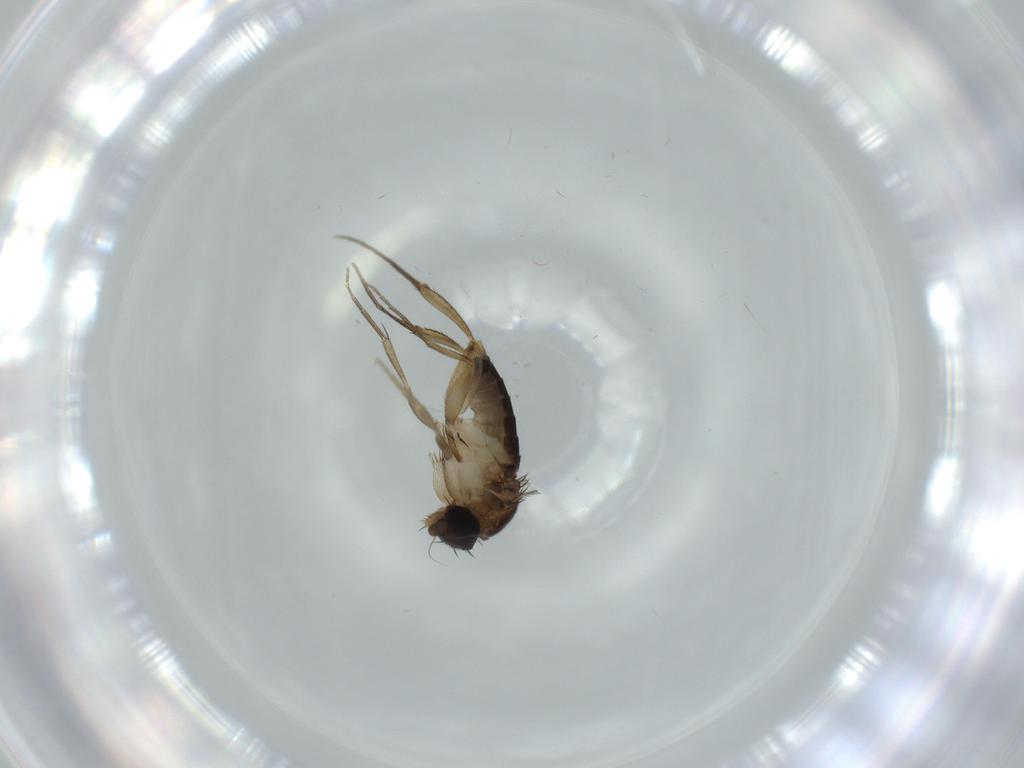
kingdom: Animalia
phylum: Arthropoda
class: Insecta
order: Diptera
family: Phoridae
